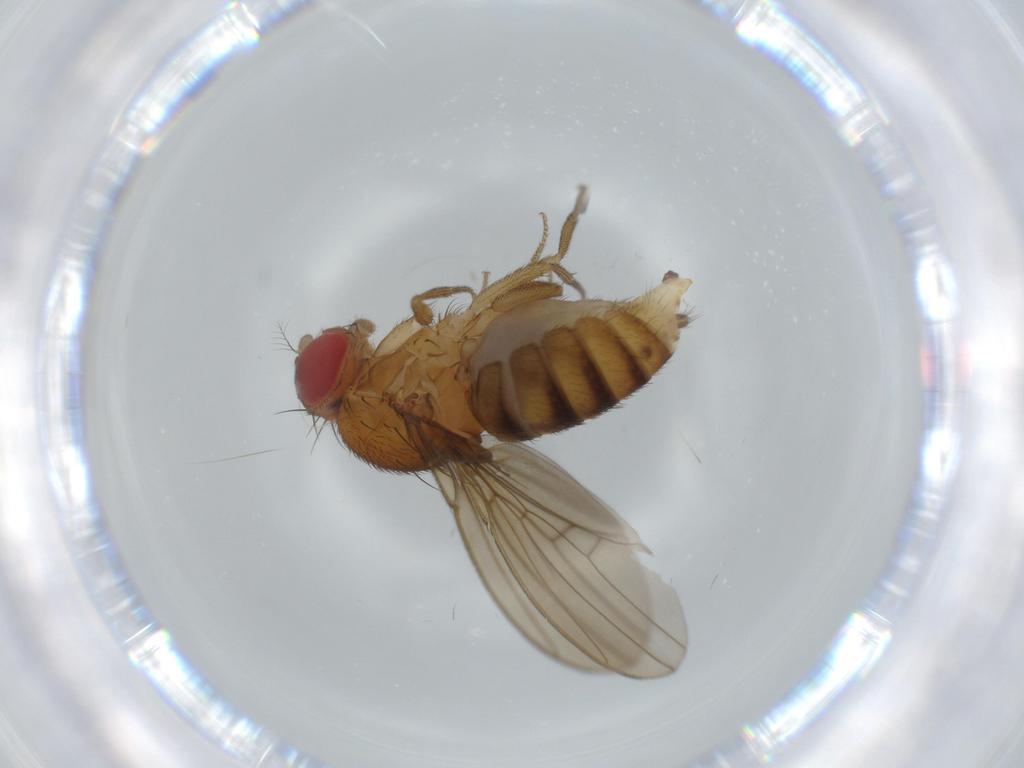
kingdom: Animalia
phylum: Arthropoda
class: Insecta
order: Diptera
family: Drosophilidae
